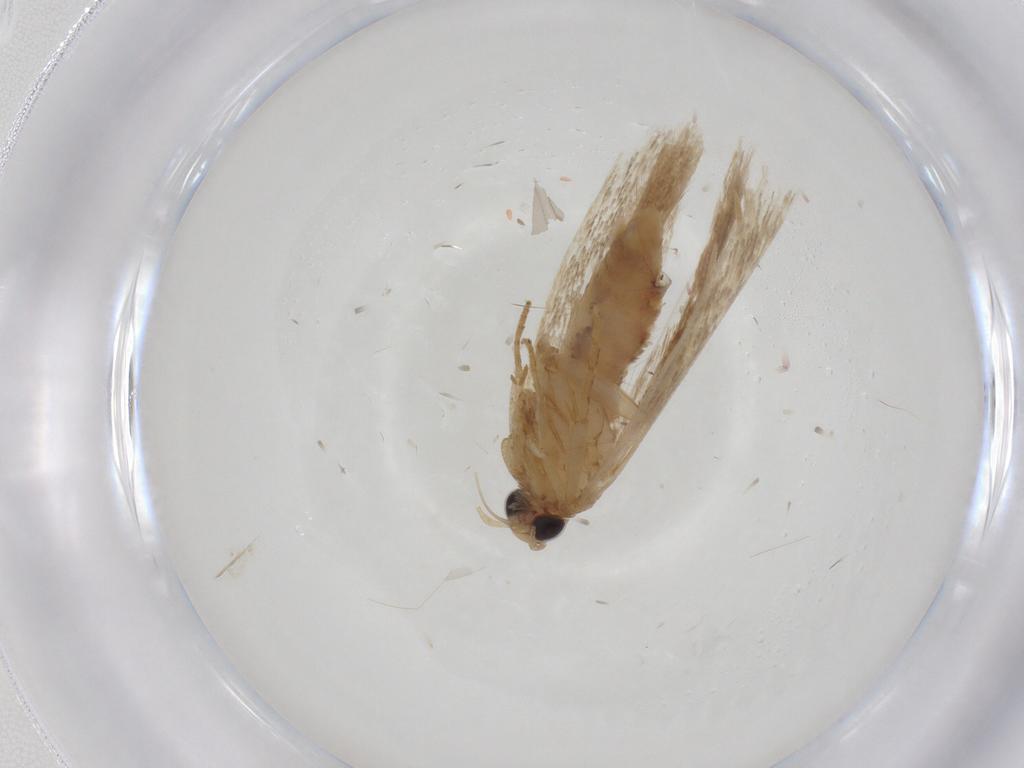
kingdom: Animalia
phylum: Arthropoda
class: Insecta
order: Lepidoptera
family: Gelechiidae
